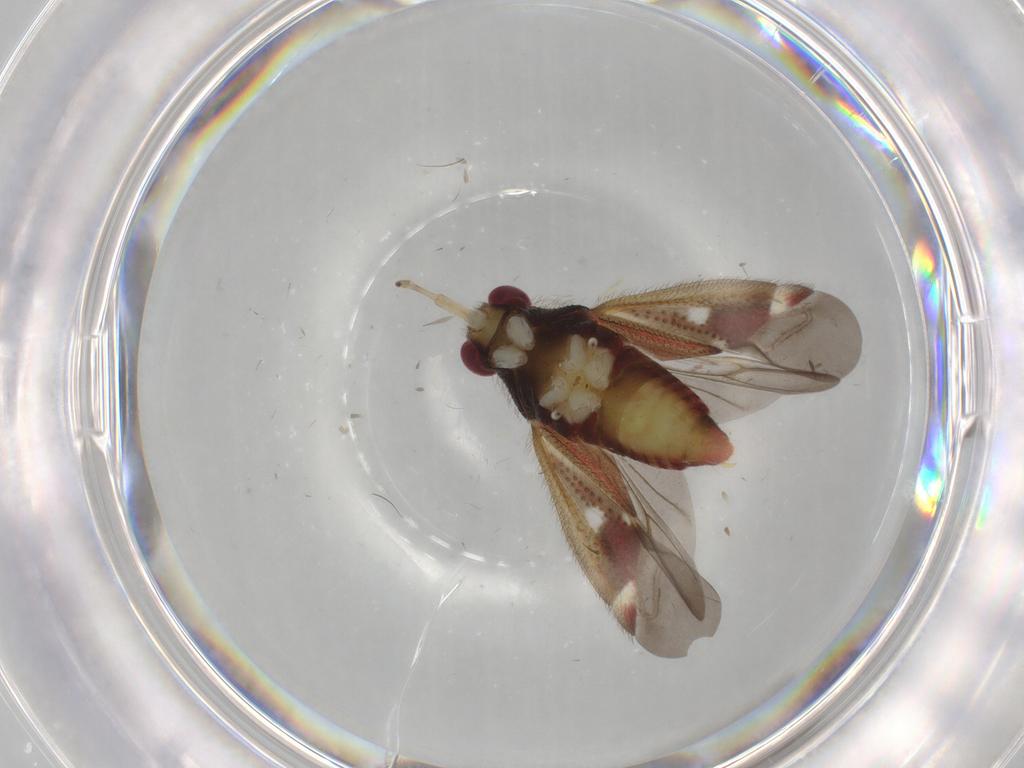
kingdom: Animalia
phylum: Arthropoda
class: Insecta
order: Hemiptera
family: Miridae
